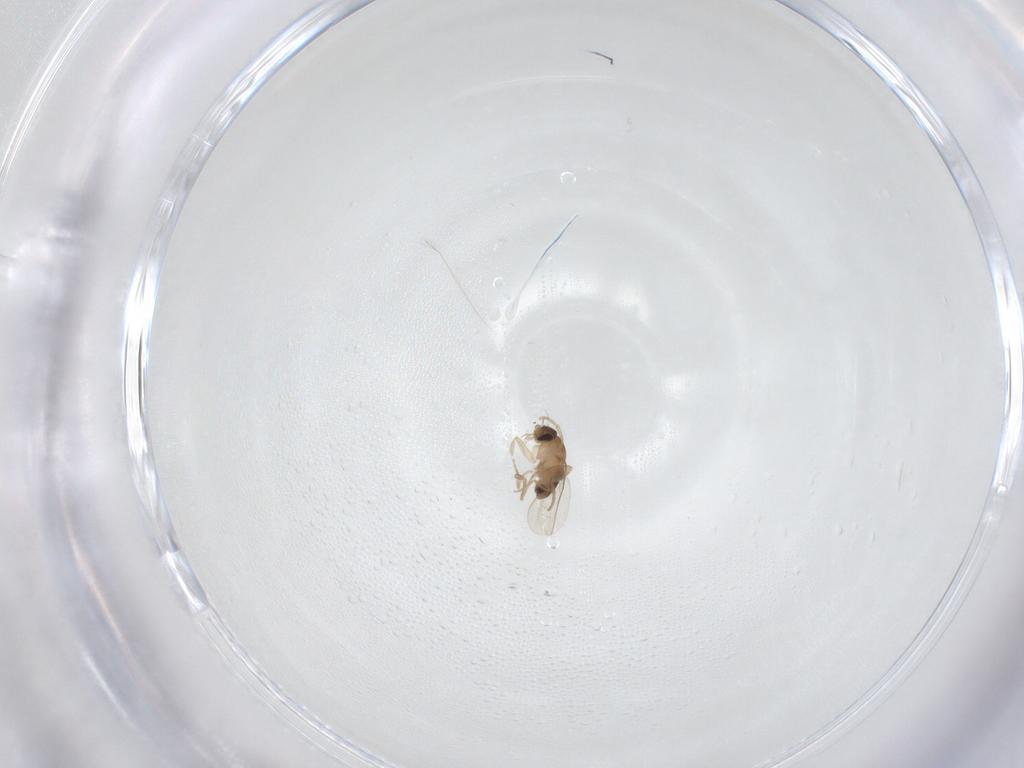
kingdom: Animalia
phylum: Arthropoda
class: Insecta
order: Diptera
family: Phoridae
